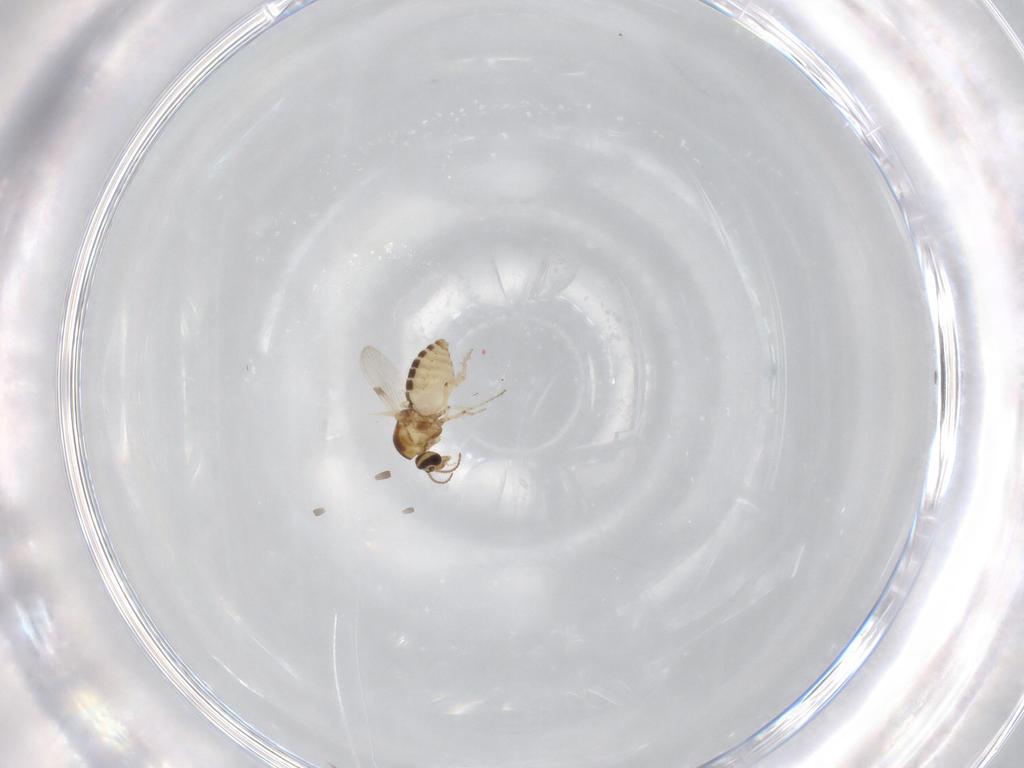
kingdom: Animalia
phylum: Arthropoda
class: Insecta
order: Diptera
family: Ceratopogonidae
